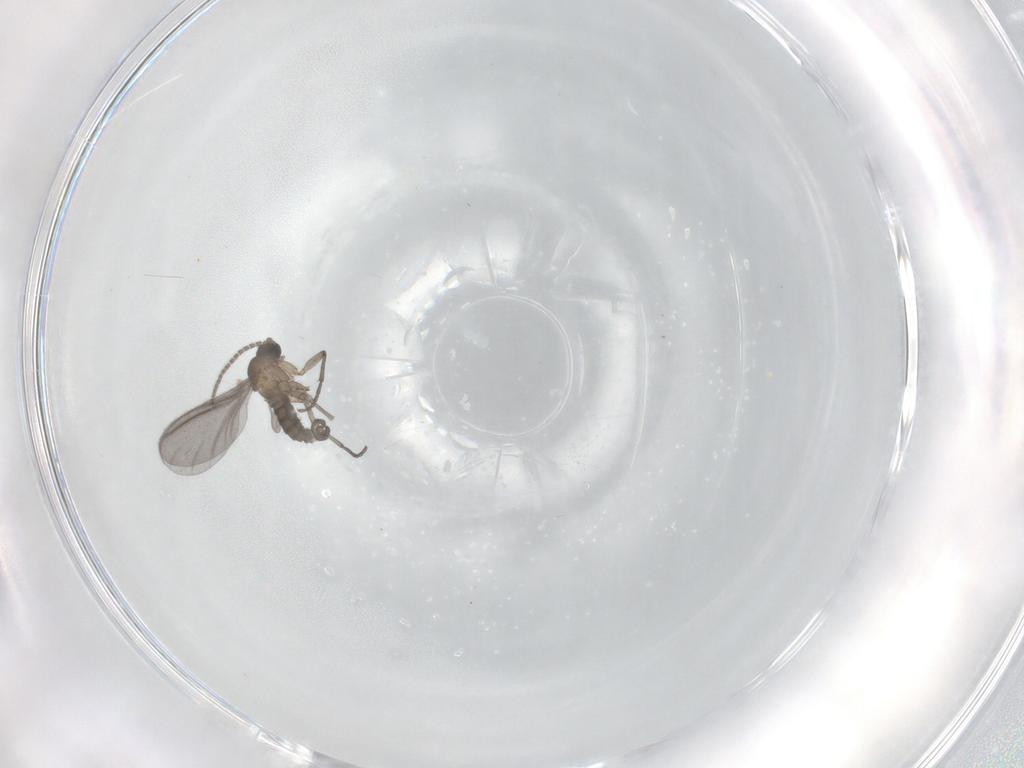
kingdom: Animalia
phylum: Arthropoda
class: Insecta
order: Diptera
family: Sciaridae
